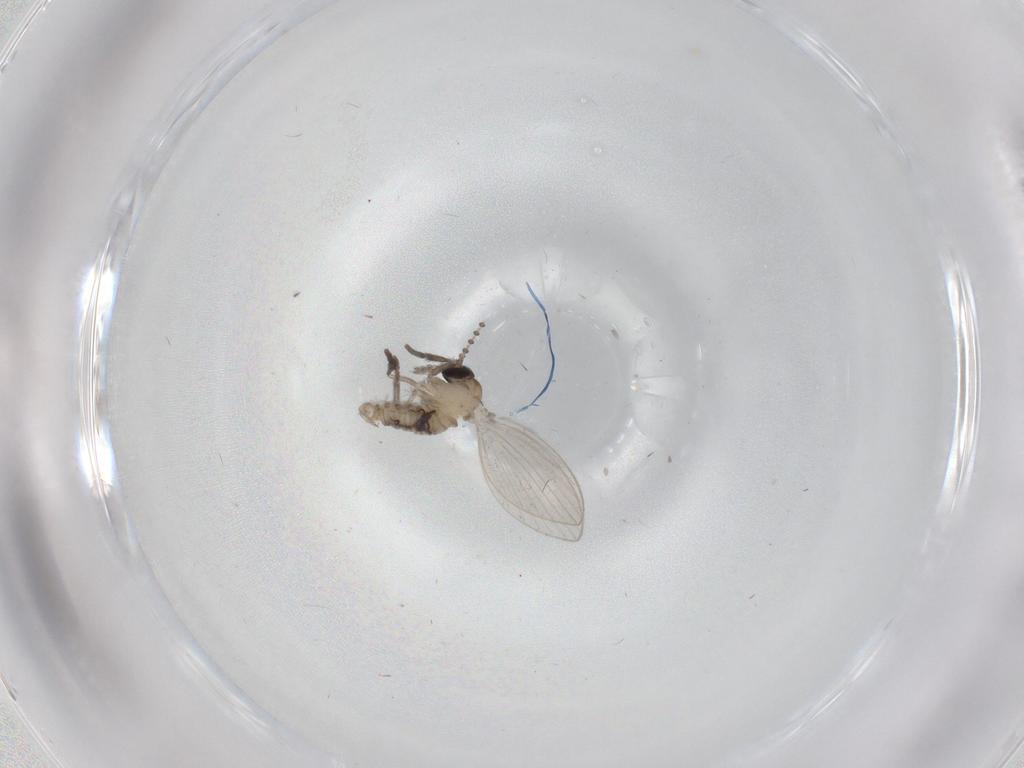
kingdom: Animalia
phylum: Arthropoda
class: Insecta
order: Diptera
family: Psychodidae
